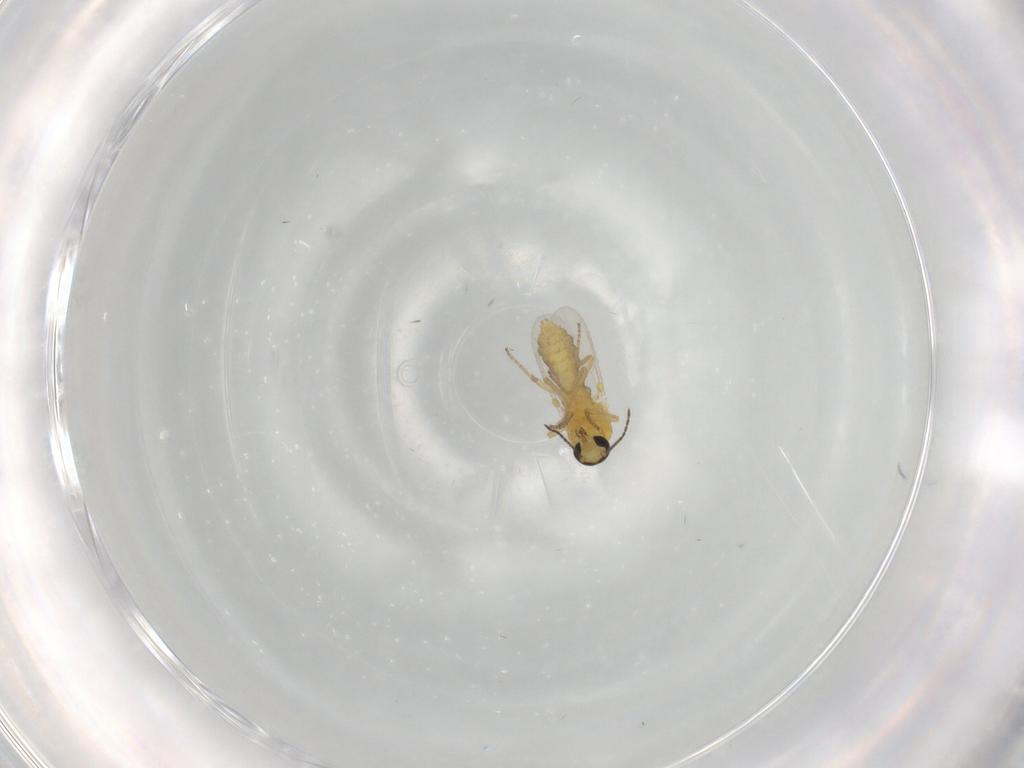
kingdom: Animalia
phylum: Arthropoda
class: Insecta
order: Diptera
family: Ceratopogonidae
